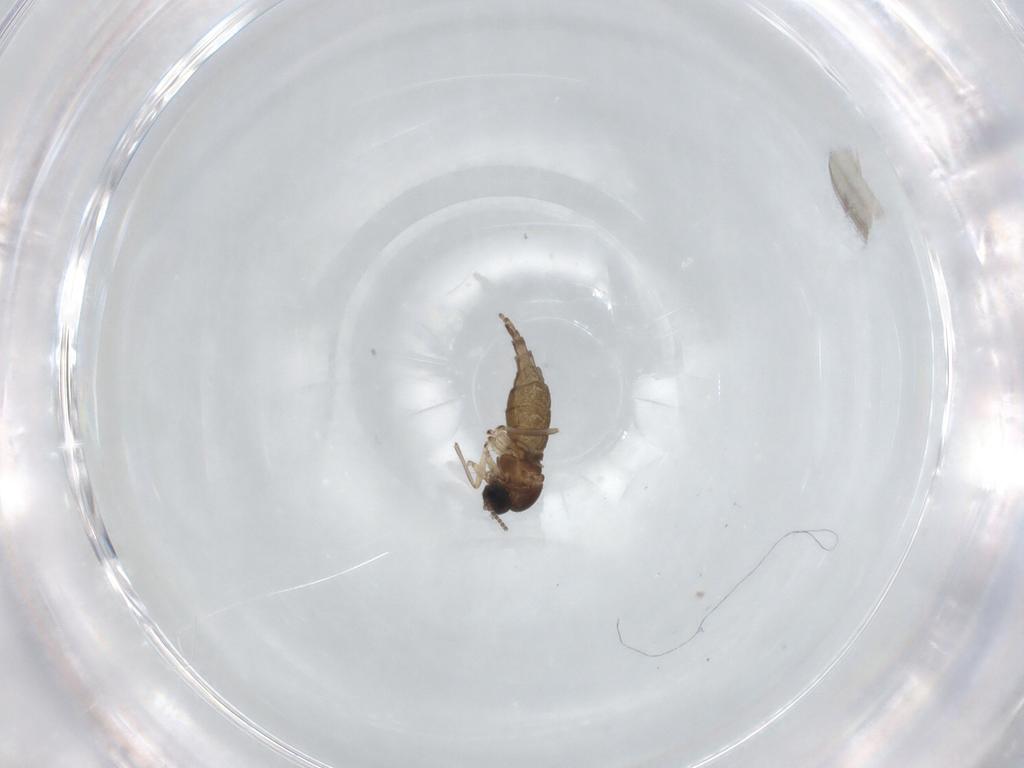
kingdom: Animalia
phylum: Arthropoda
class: Insecta
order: Diptera
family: Sciaridae
